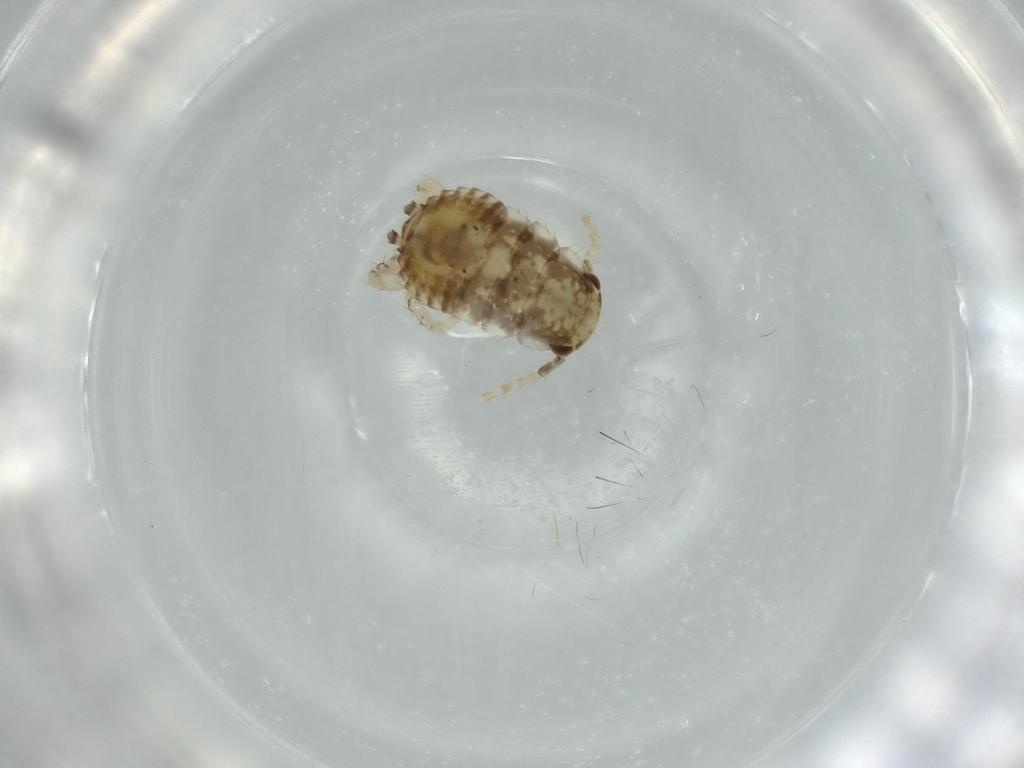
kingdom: Animalia
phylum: Arthropoda
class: Insecta
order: Blattodea
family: Ectobiidae
